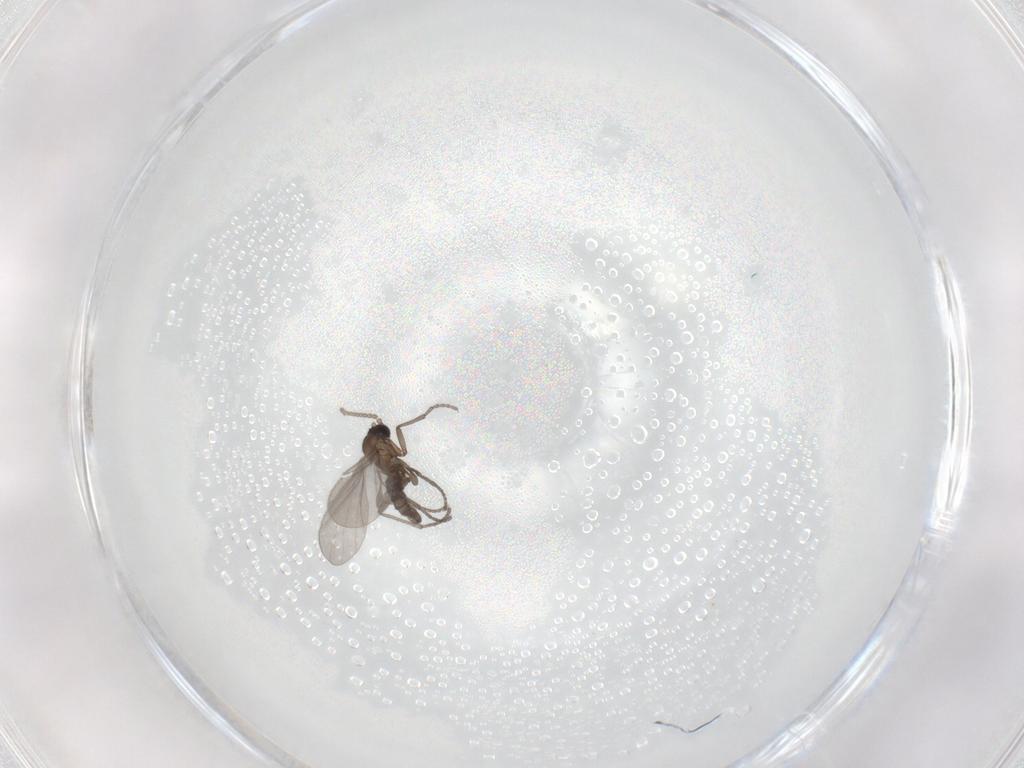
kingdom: Animalia
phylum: Arthropoda
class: Insecta
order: Diptera
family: Sciaridae
